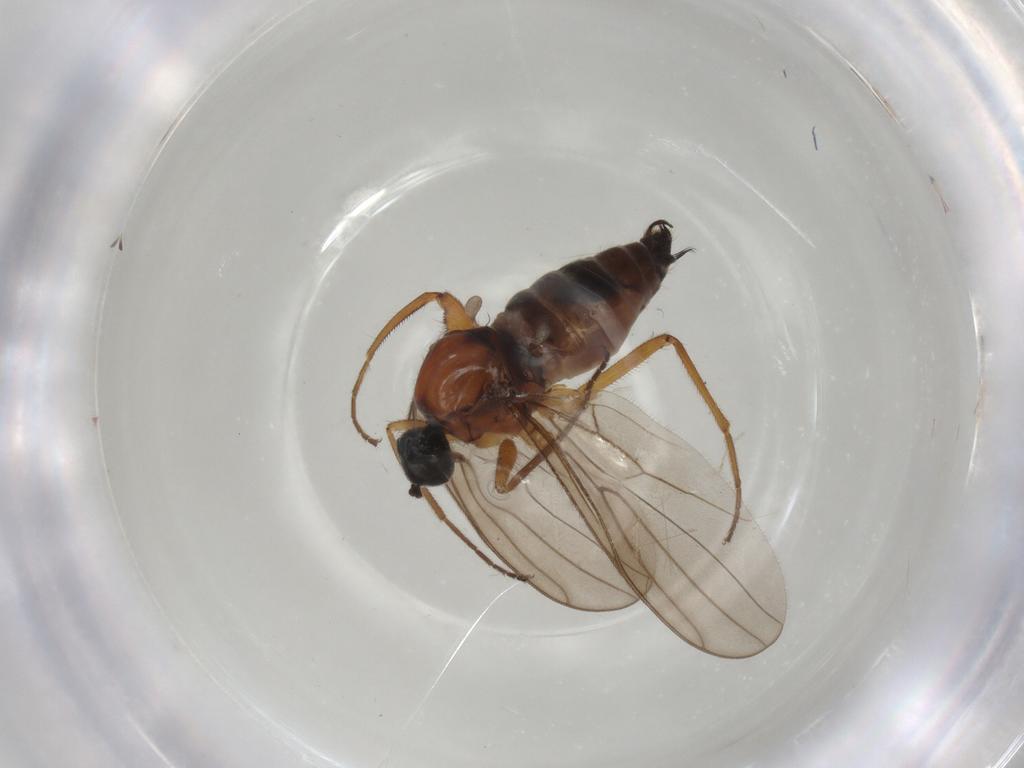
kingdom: Animalia
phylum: Arthropoda
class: Insecta
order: Diptera
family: Hybotidae
